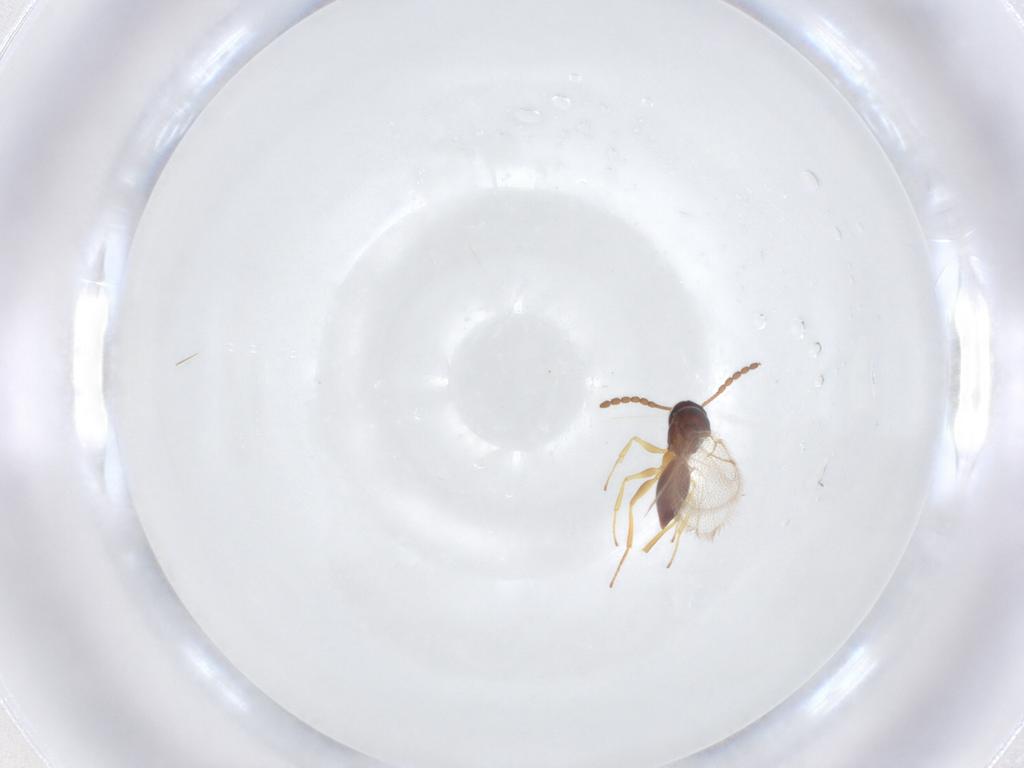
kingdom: Animalia
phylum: Arthropoda
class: Insecta
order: Hymenoptera
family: Figitidae
